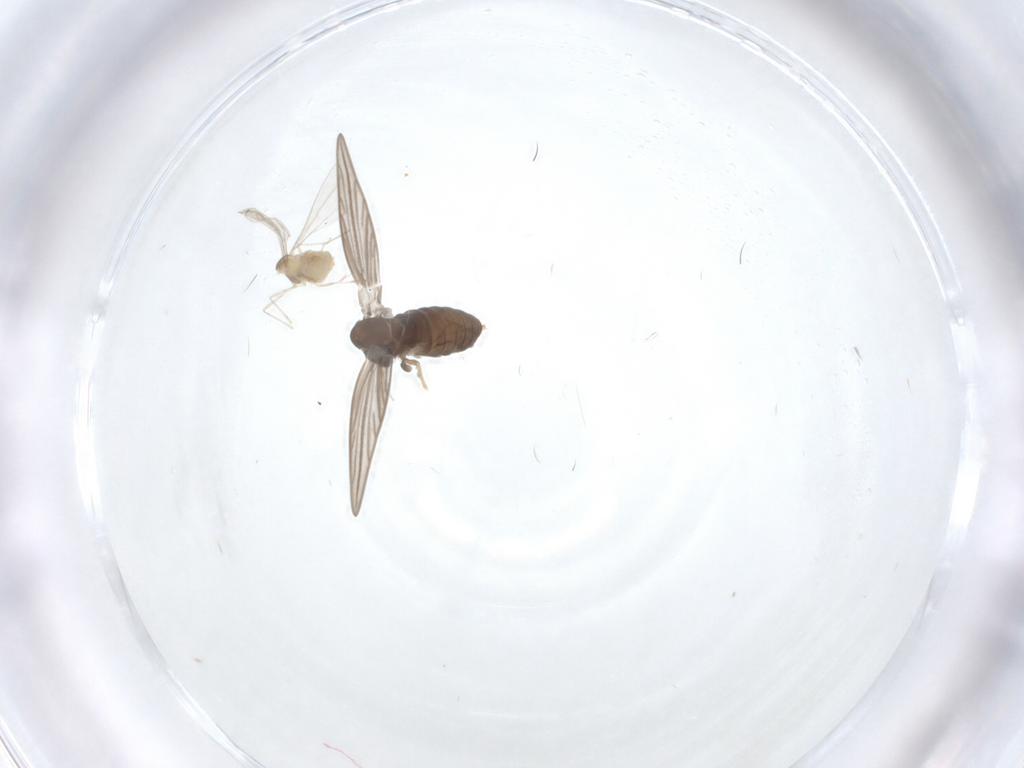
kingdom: Animalia
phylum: Arthropoda
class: Insecta
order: Diptera
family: Psychodidae
